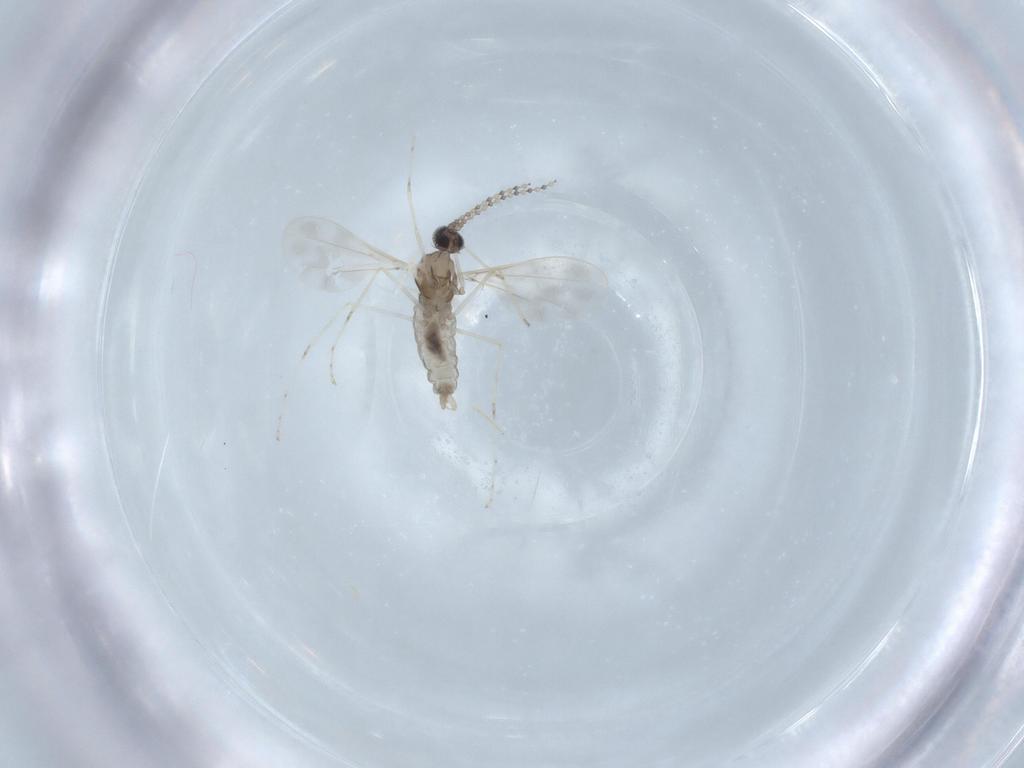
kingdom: Animalia
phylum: Arthropoda
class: Insecta
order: Diptera
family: Cecidomyiidae
